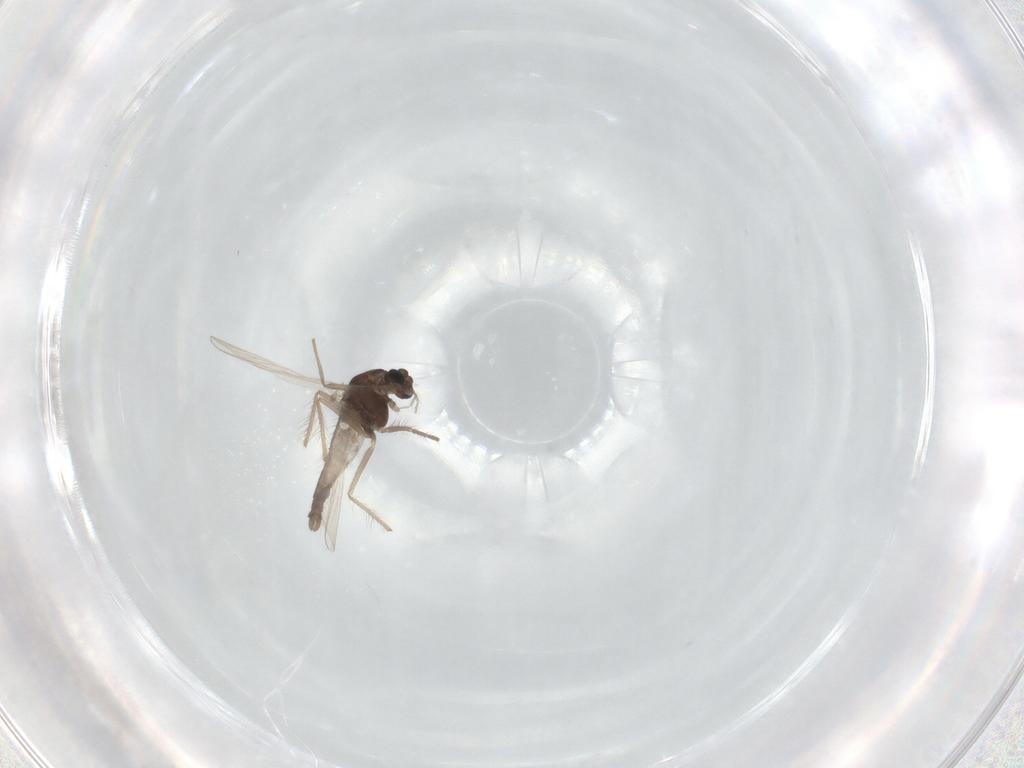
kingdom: Animalia
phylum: Arthropoda
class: Insecta
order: Diptera
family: Chironomidae
